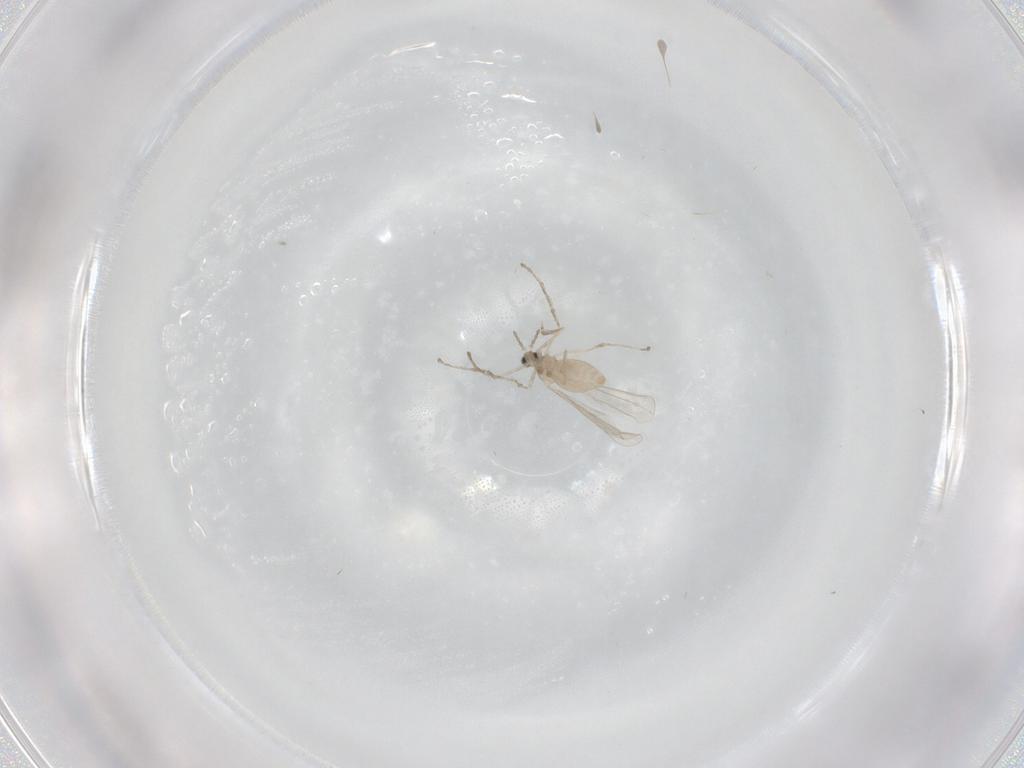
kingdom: Animalia
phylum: Arthropoda
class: Insecta
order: Diptera
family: Cecidomyiidae
